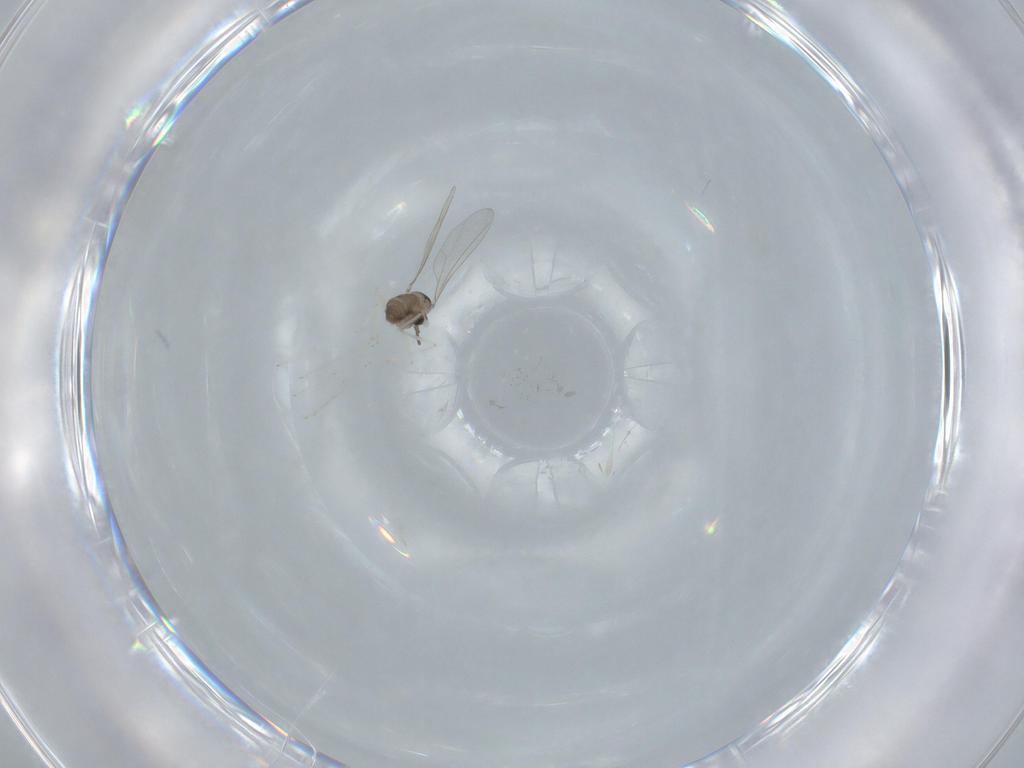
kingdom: Animalia
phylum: Arthropoda
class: Insecta
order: Diptera
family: Cecidomyiidae
